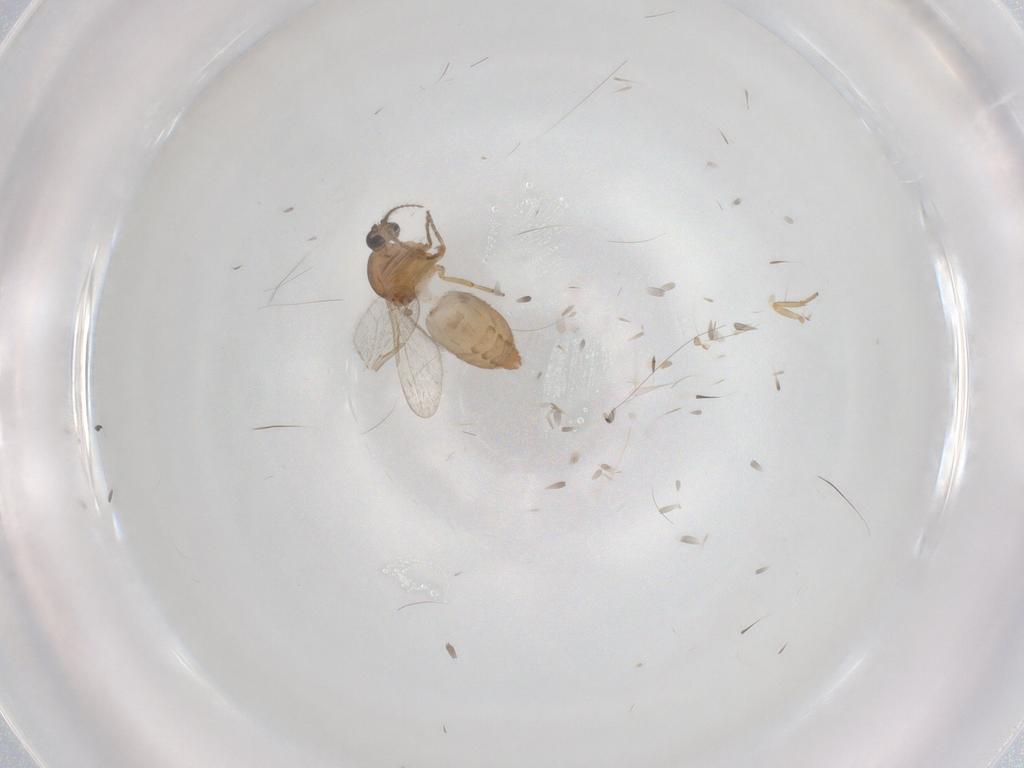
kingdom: Animalia
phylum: Arthropoda
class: Insecta
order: Diptera
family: Ceratopogonidae
